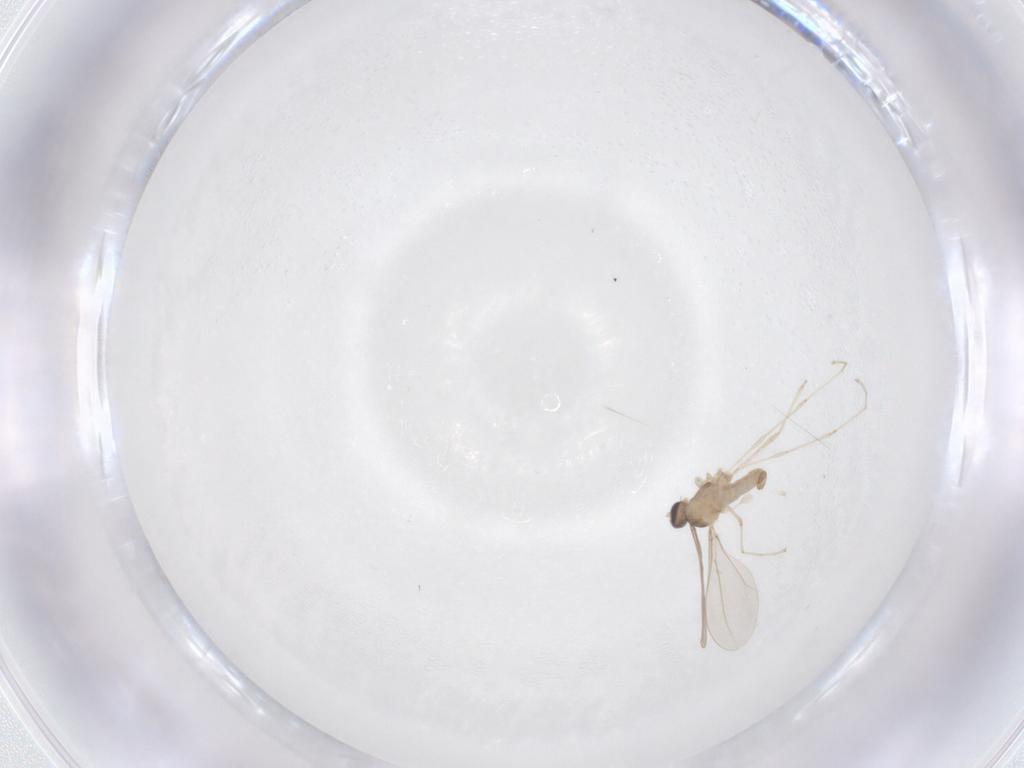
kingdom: Animalia
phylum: Arthropoda
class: Insecta
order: Diptera
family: Cecidomyiidae
